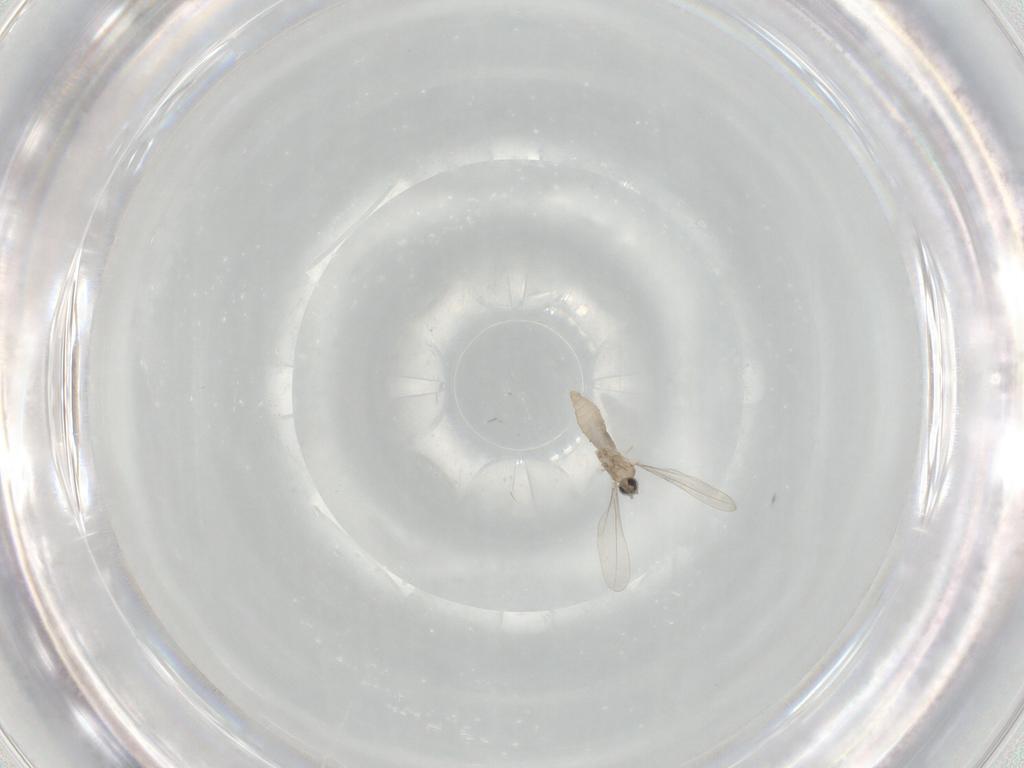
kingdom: Animalia
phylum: Arthropoda
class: Insecta
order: Diptera
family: Cecidomyiidae
